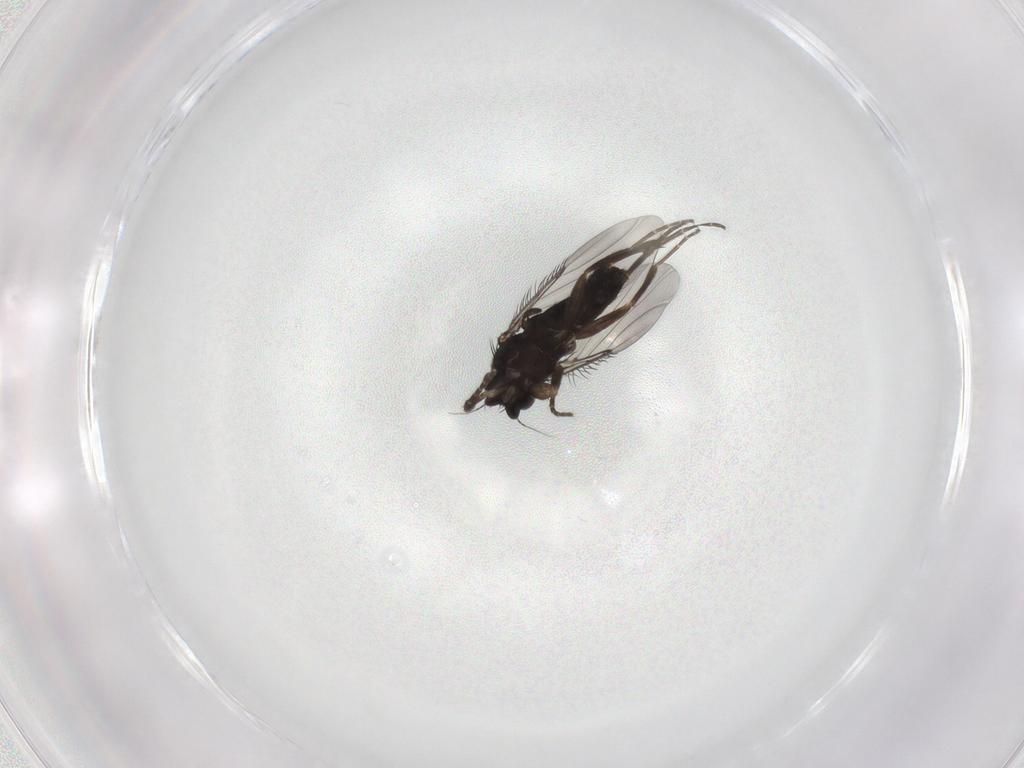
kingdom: Animalia
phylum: Arthropoda
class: Insecta
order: Diptera
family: Phoridae
